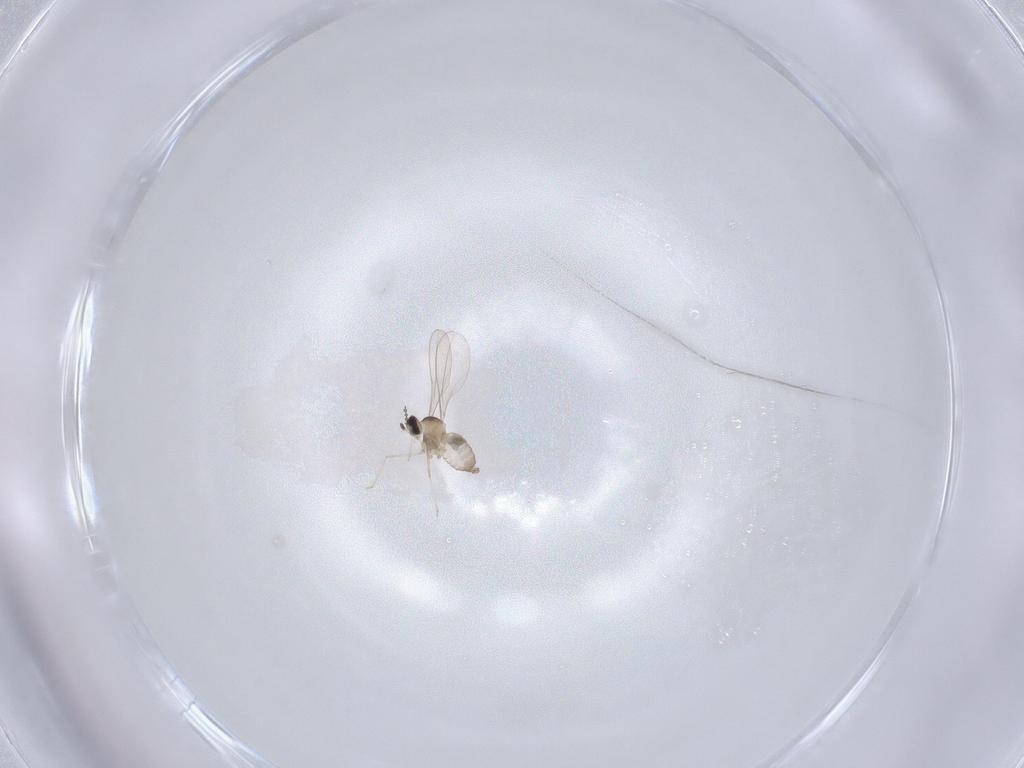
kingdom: Animalia
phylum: Arthropoda
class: Insecta
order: Diptera
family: Cecidomyiidae
